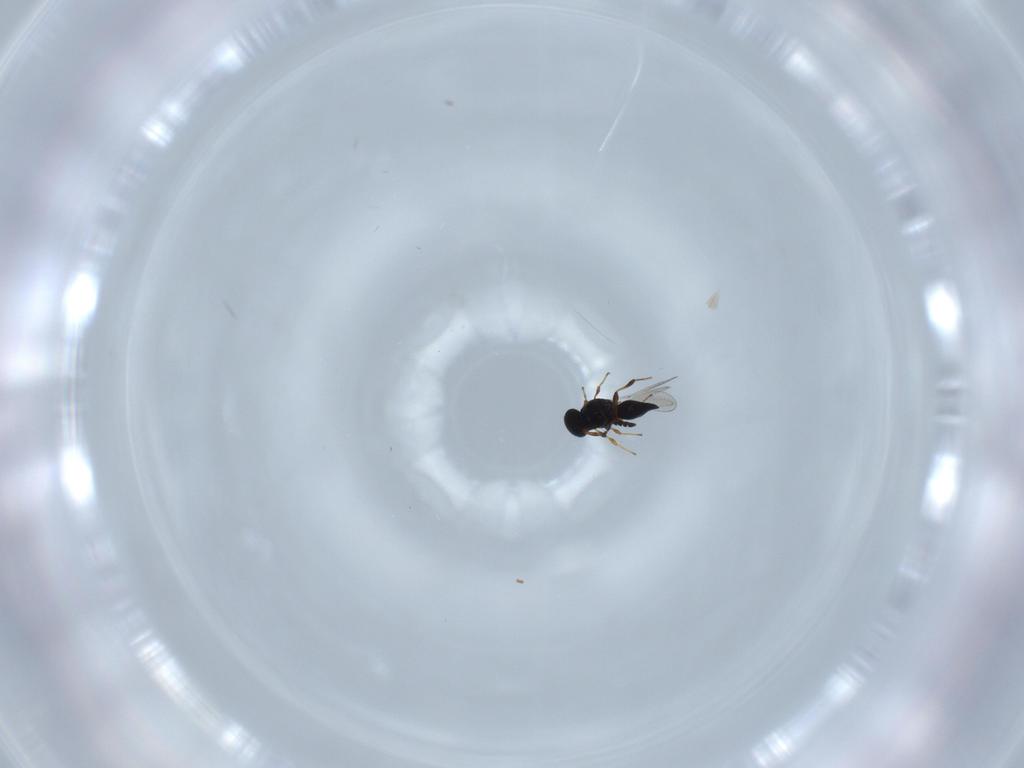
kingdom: Animalia
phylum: Arthropoda
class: Insecta
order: Hymenoptera
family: Platygastridae
